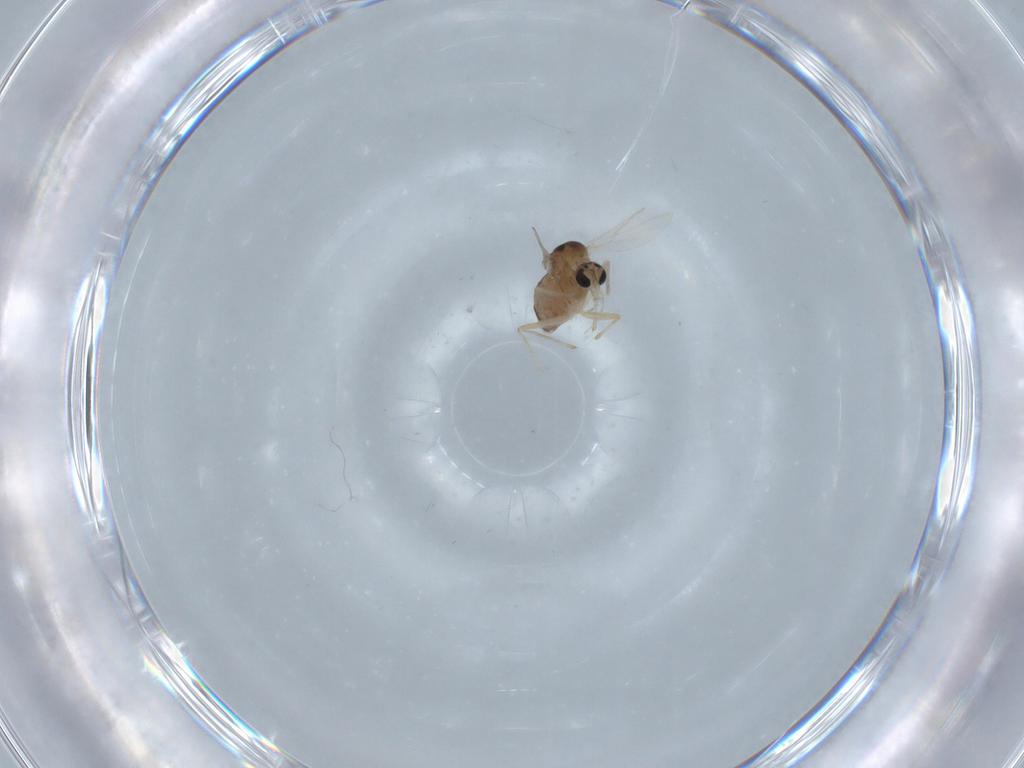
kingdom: Animalia
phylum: Arthropoda
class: Insecta
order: Diptera
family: Chironomidae
